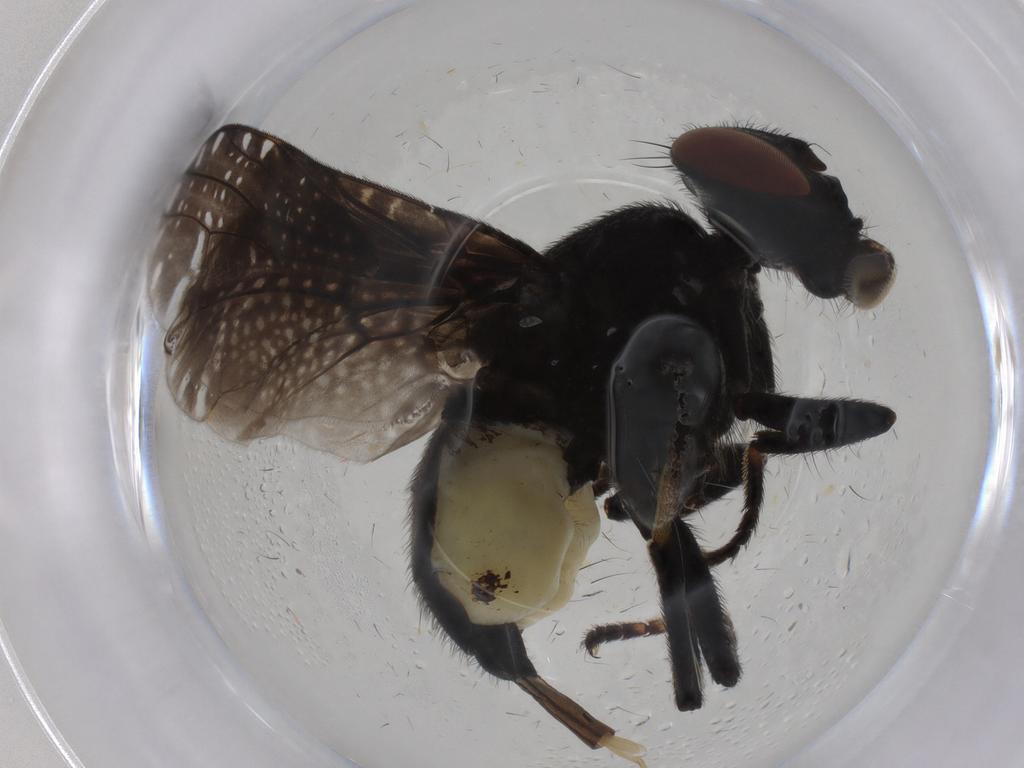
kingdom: Animalia
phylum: Arthropoda
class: Insecta
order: Diptera
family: Platystomatidae
